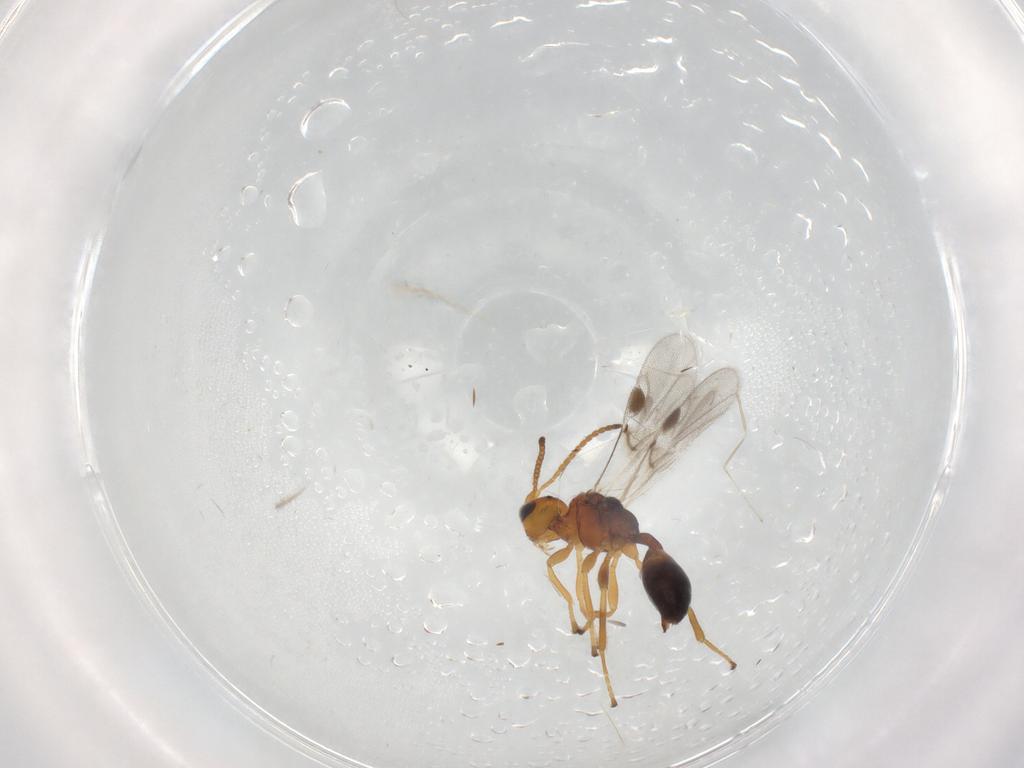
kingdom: Animalia
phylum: Arthropoda
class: Insecta
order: Hymenoptera
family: Braconidae
